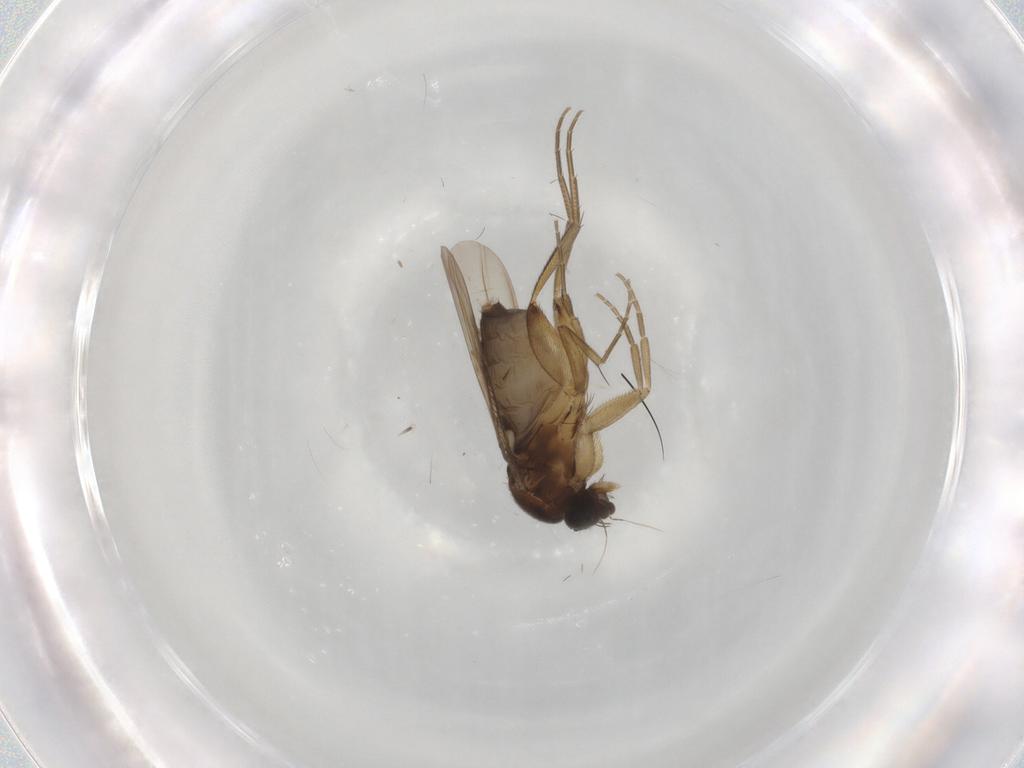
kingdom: Animalia
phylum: Arthropoda
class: Insecta
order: Diptera
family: Phoridae
